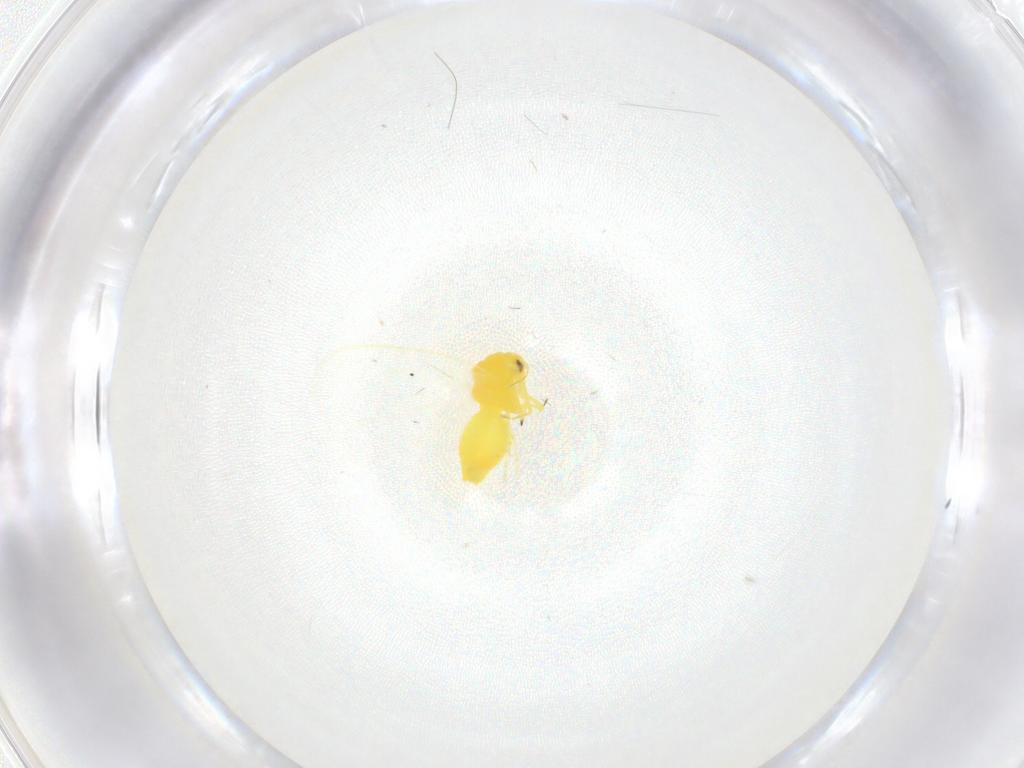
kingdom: Animalia
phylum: Arthropoda
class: Insecta
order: Hemiptera
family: Aleyrodidae
